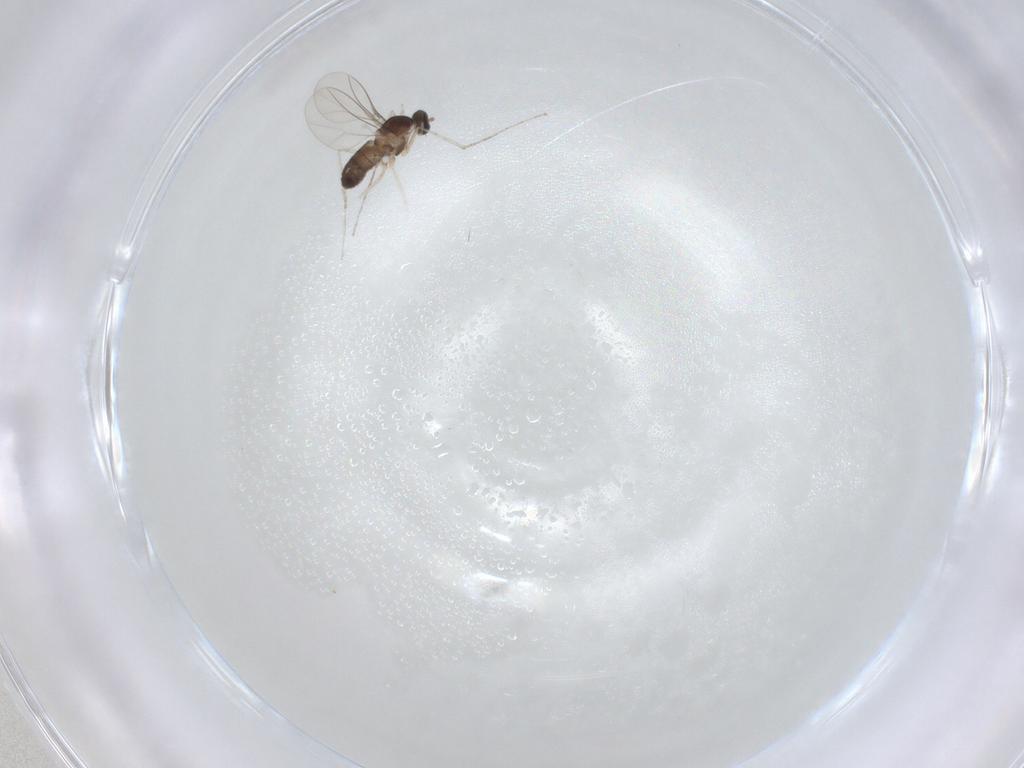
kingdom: Animalia
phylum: Arthropoda
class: Insecta
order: Diptera
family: Cecidomyiidae
